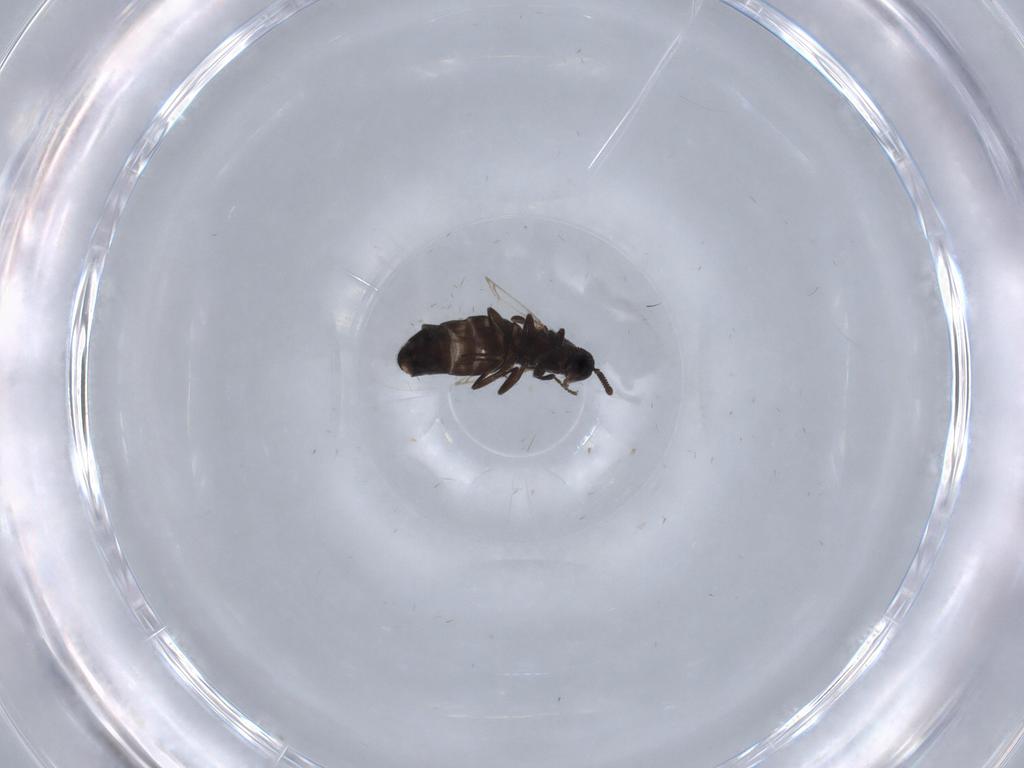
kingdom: Animalia
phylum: Arthropoda
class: Insecta
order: Diptera
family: Scatopsidae
